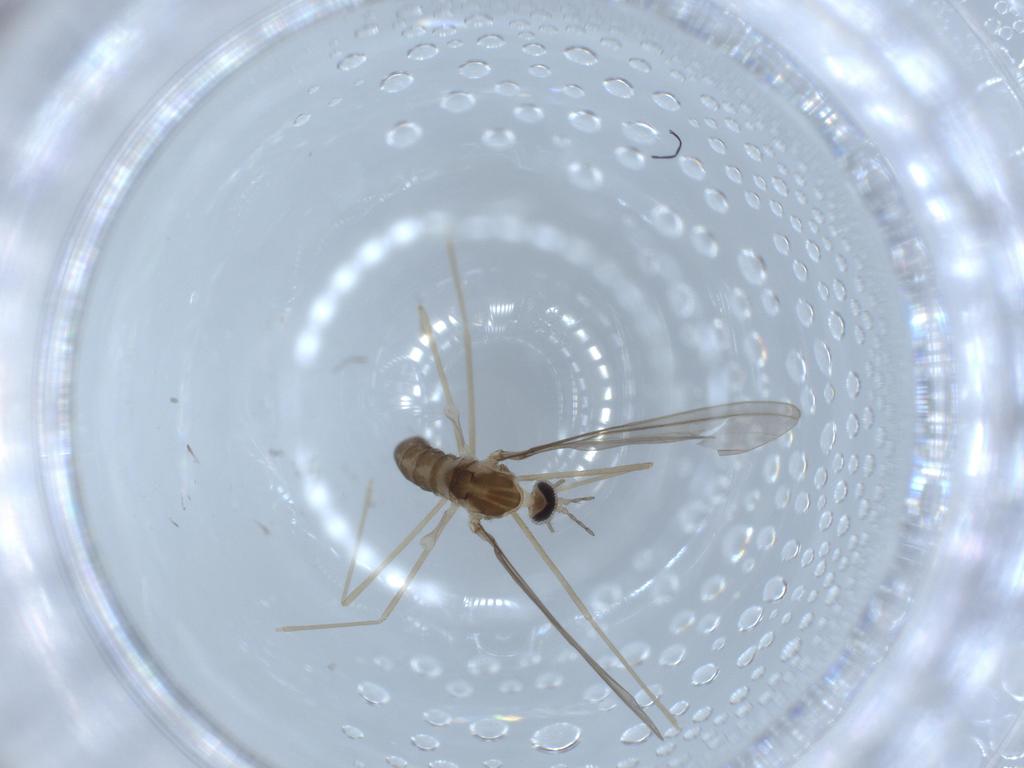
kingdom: Animalia
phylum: Arthropoda
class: Insecta
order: Diptera
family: Cecidomyiidae
